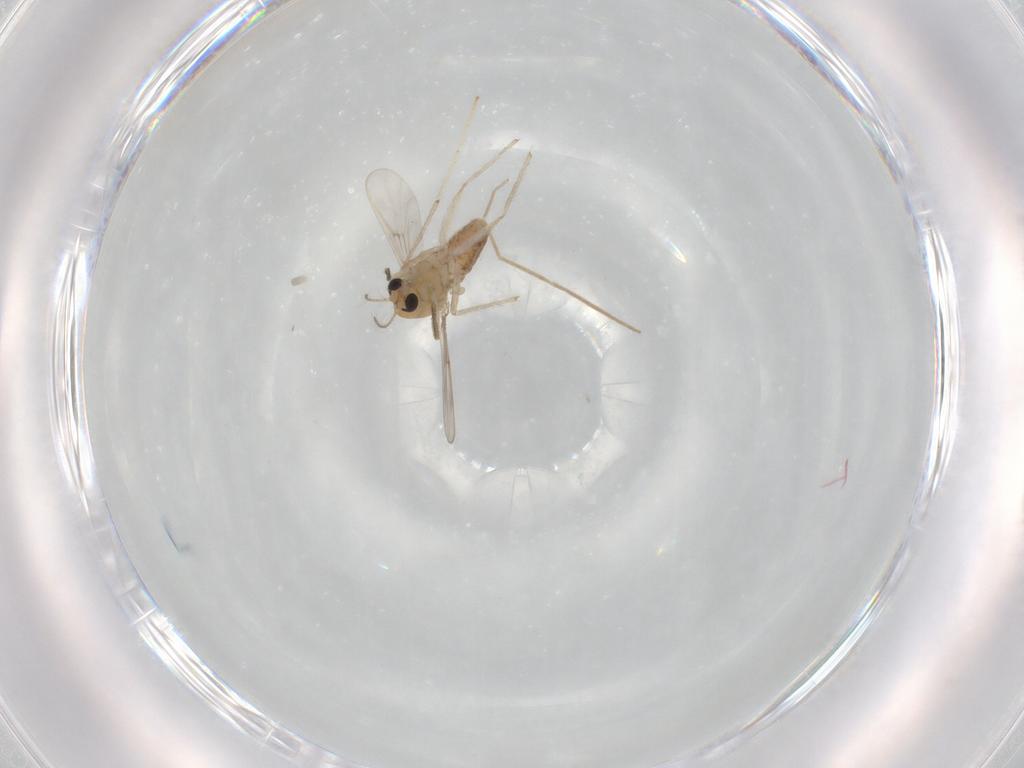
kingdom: Animalia
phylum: Arthropoda
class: Insecta
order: Diptera
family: Chironomidae
